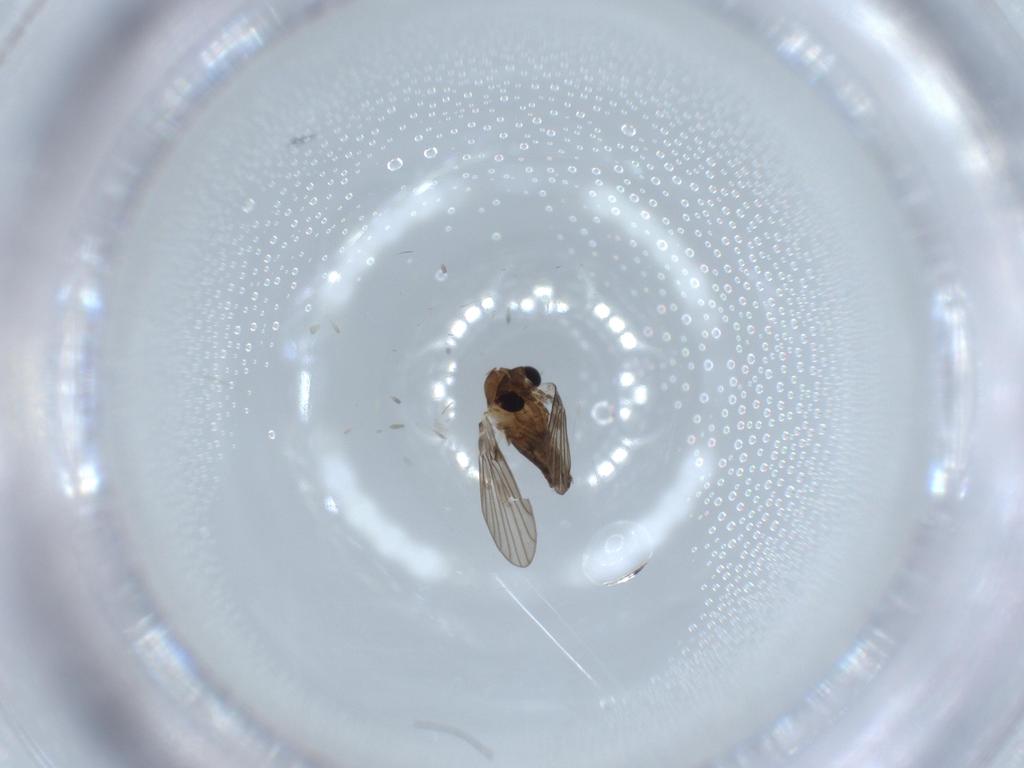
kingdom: Animalia
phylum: Arthropoda
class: Insecta
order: Diptera
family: Psychodidae
